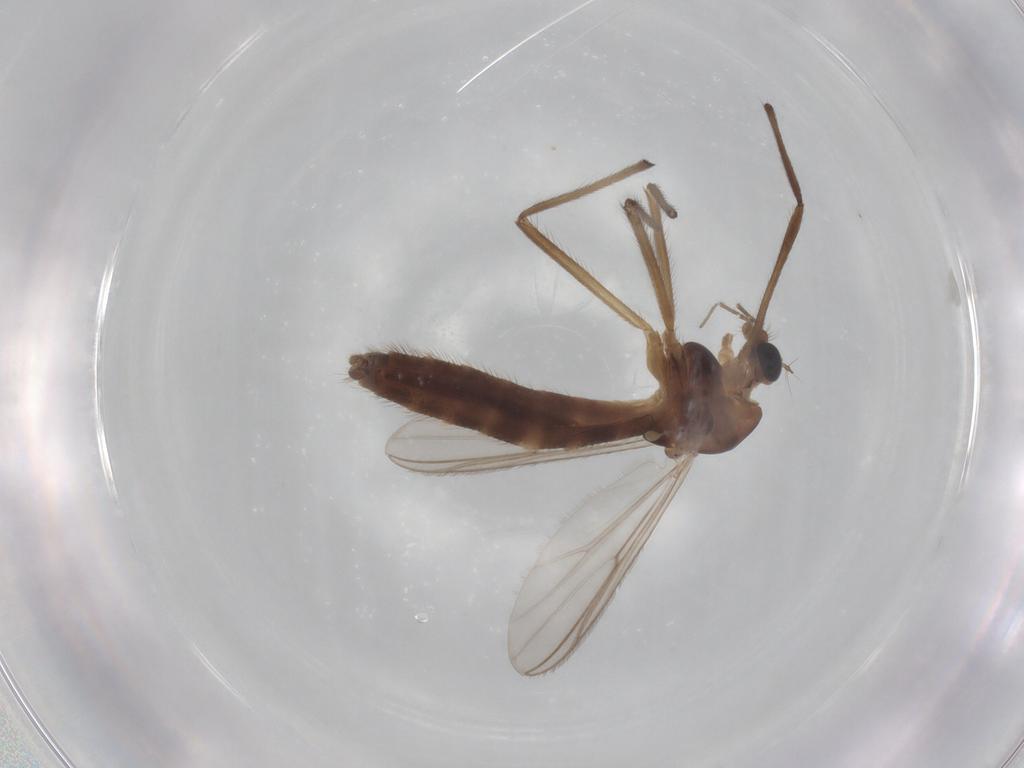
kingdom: Animalia
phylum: Arthropoda
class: Insecta
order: Diptera
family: Chironomidae
